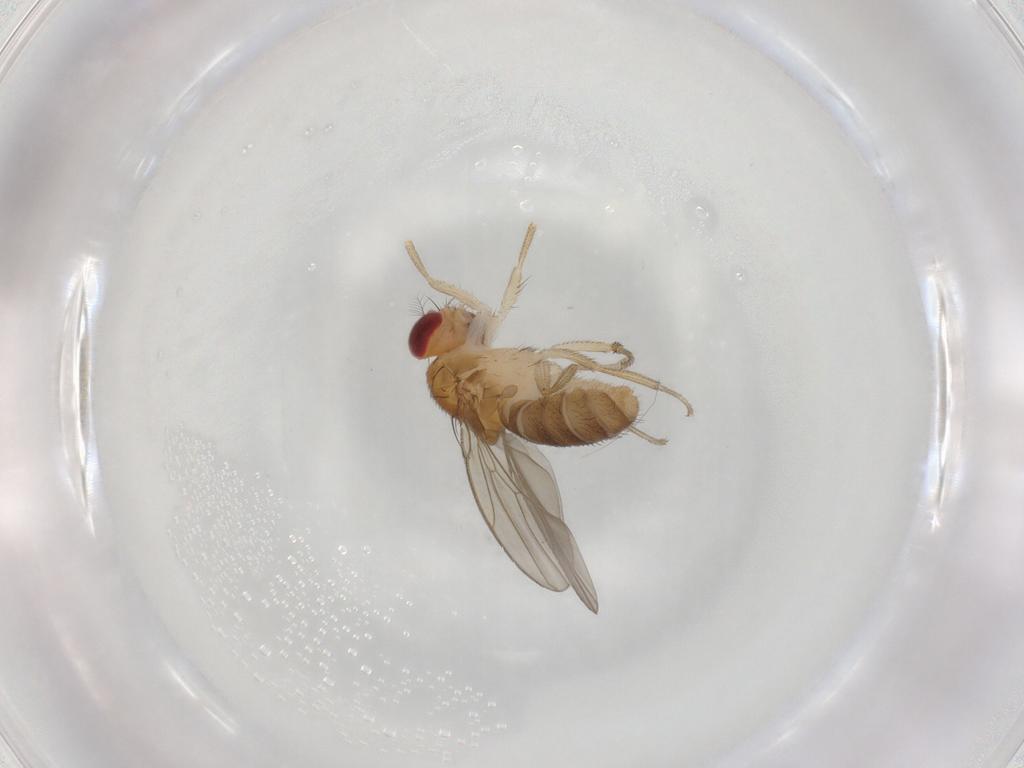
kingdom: Animalia
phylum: Arthropoda
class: Insecta
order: Diptera
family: Drosophilidae
